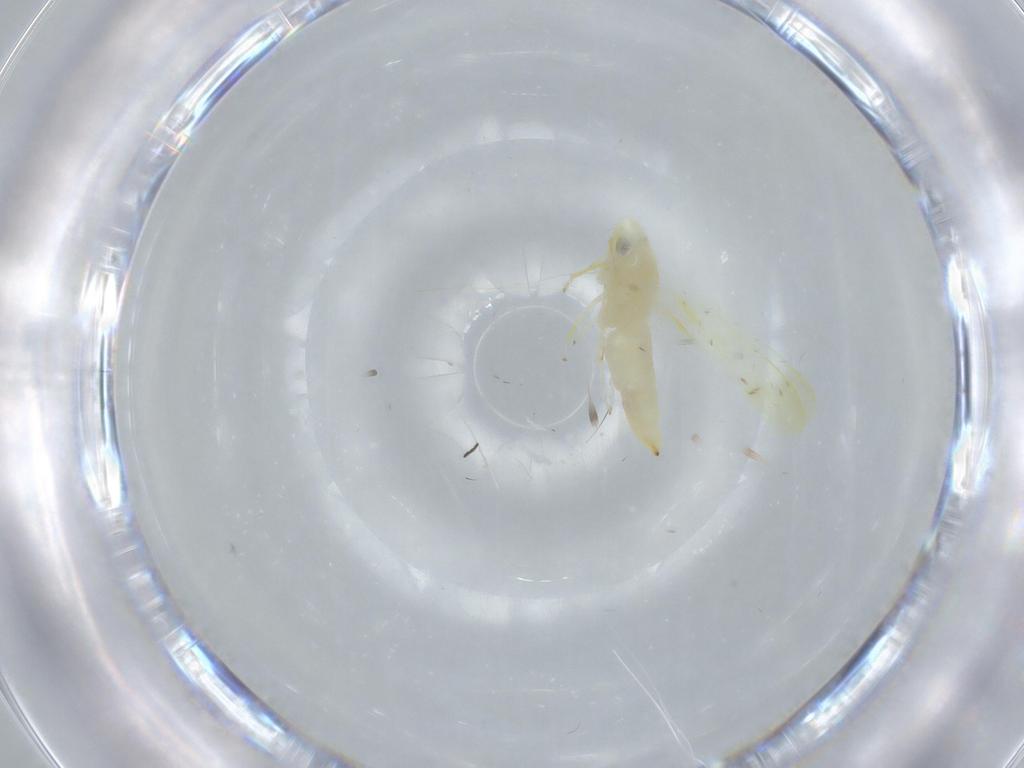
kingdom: Animalia
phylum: Arthropoda
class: Insecta
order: Hemiptera
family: Cicadellidae
